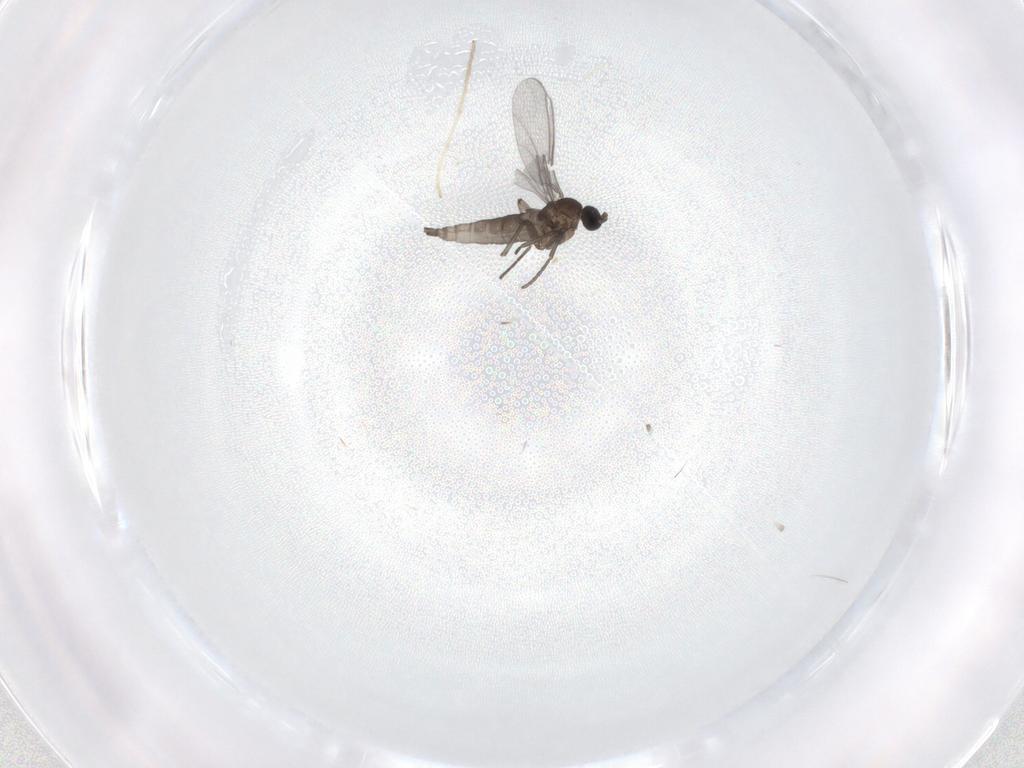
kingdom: Animalia
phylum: Arthropoda
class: Insecta
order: Diptera
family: Sciaridae
